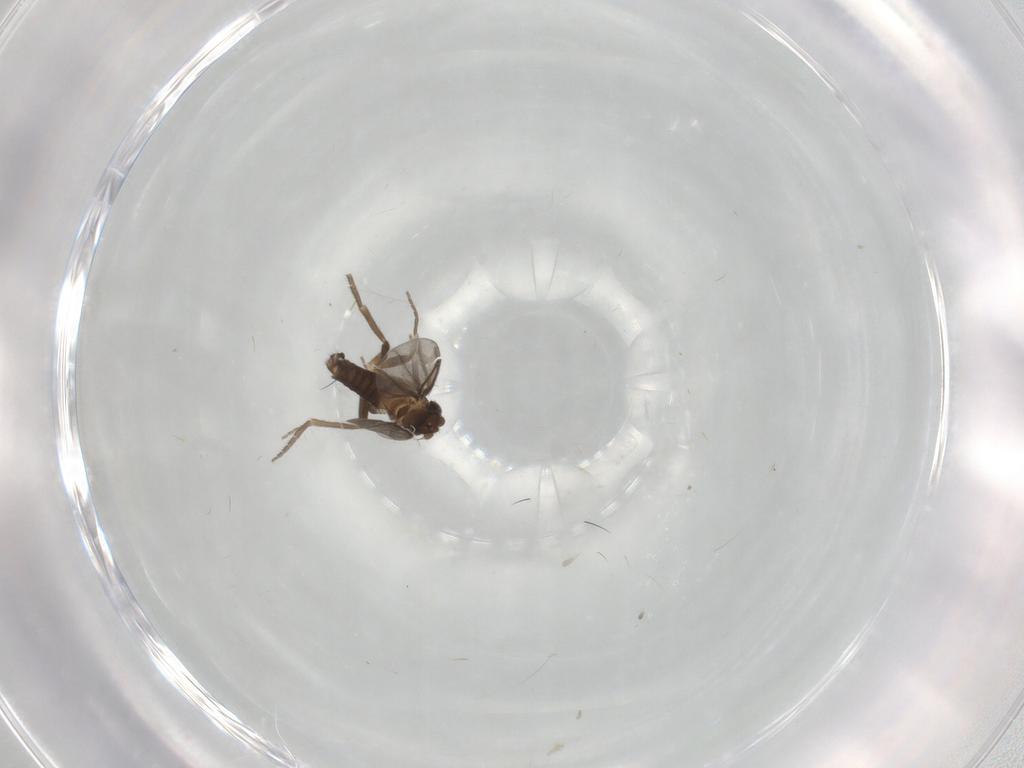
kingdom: Animalia
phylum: Arthropoda
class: Insecta
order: Diptera
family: Phoridae
